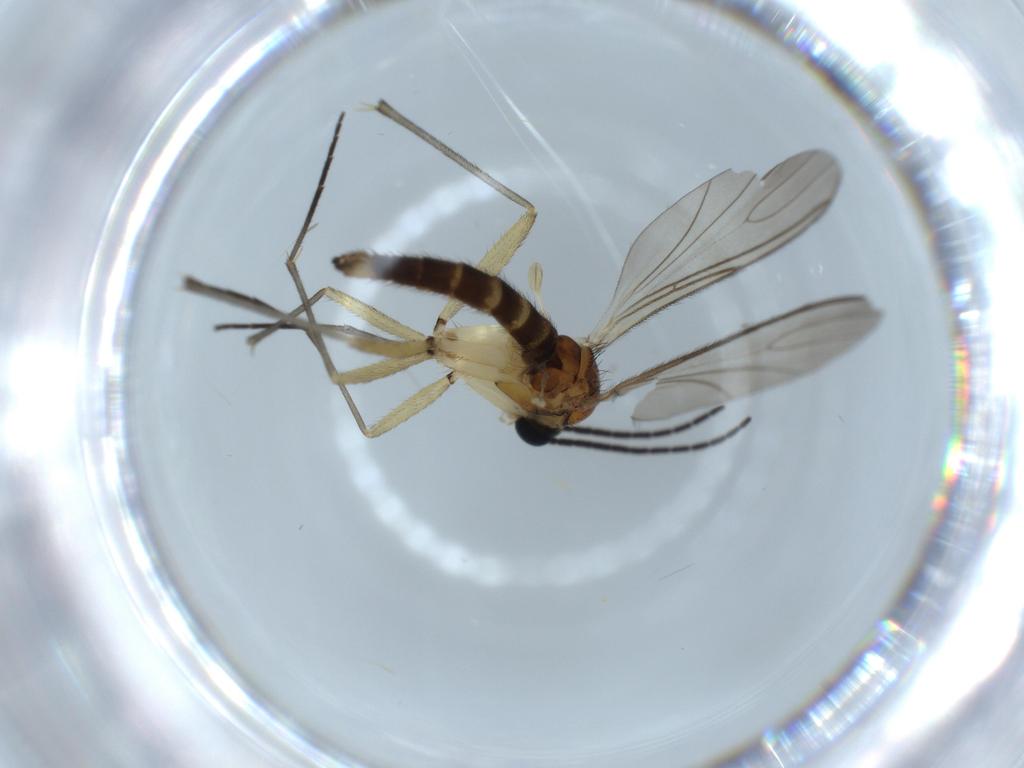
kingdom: Animalia
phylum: Arthropoda
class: Insecta
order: Diptera
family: Sciaridae
